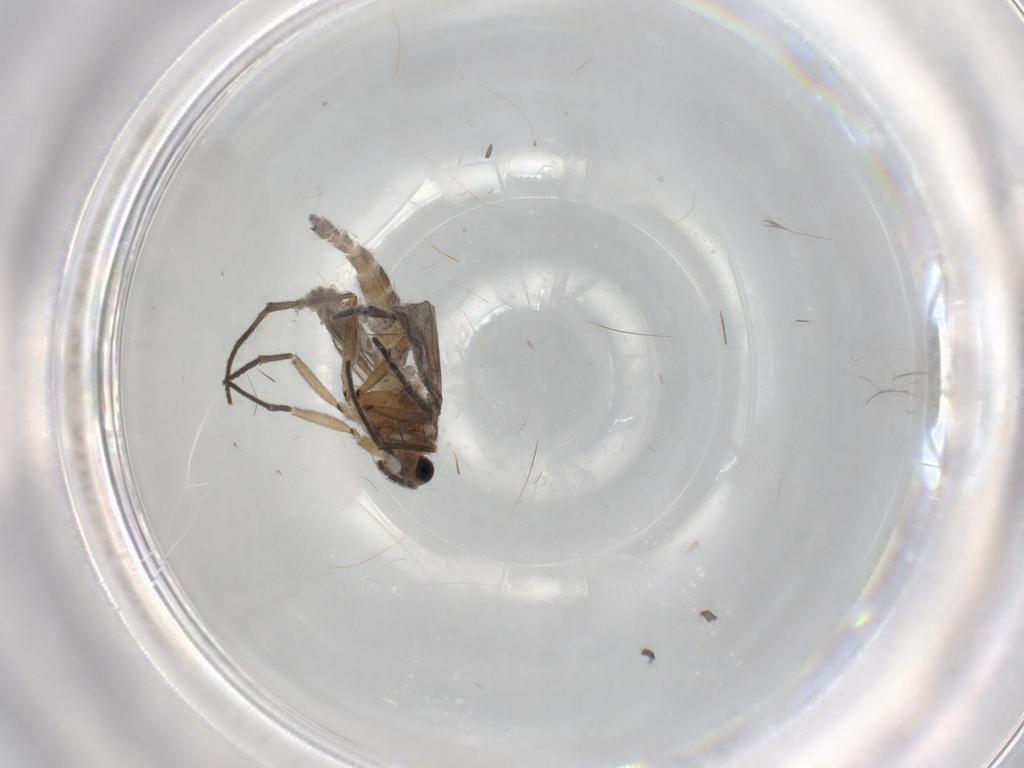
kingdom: Animalia
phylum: Arthropoda
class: Insecta
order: Diptera
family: Sciaridae
